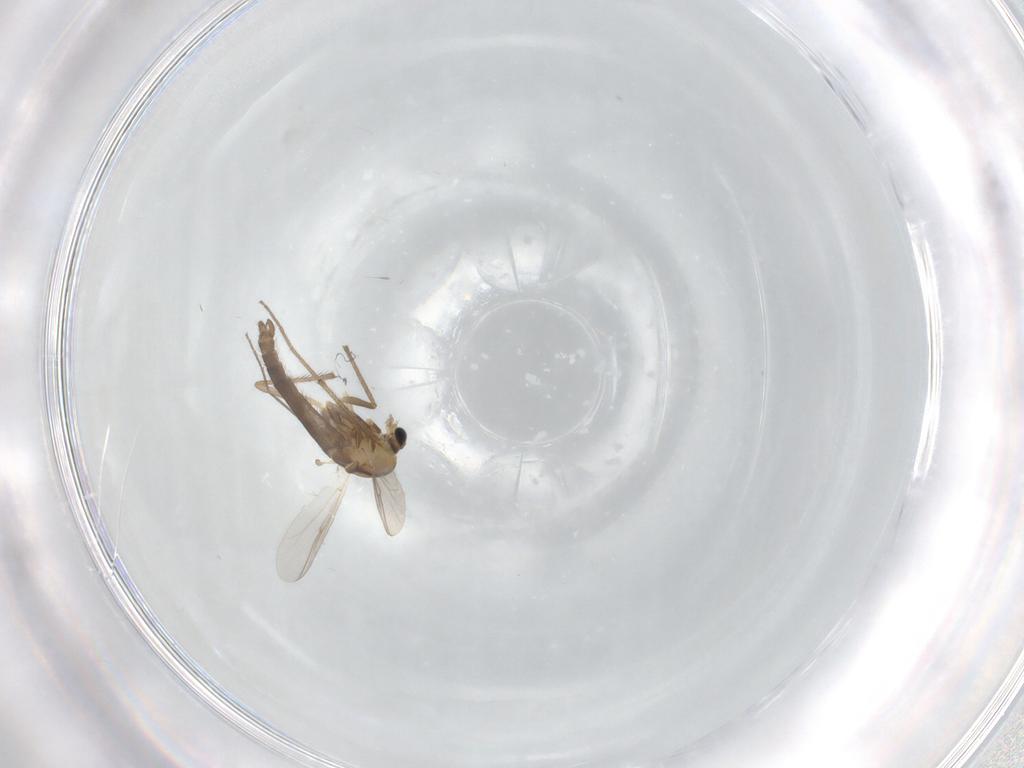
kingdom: Animalia
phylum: Arthropoda
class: Insecta
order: Diptera
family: Chironomidae
